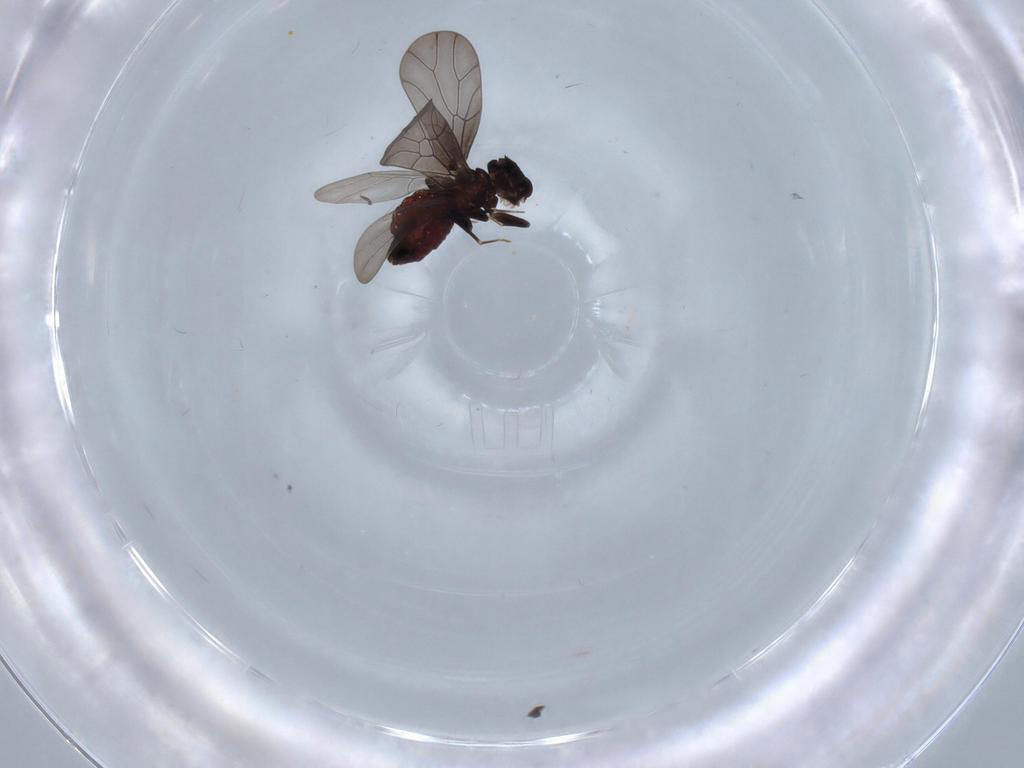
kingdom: Animalia
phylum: Arthropoda
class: Insecta
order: Psocodea
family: Lepidopsocidae
